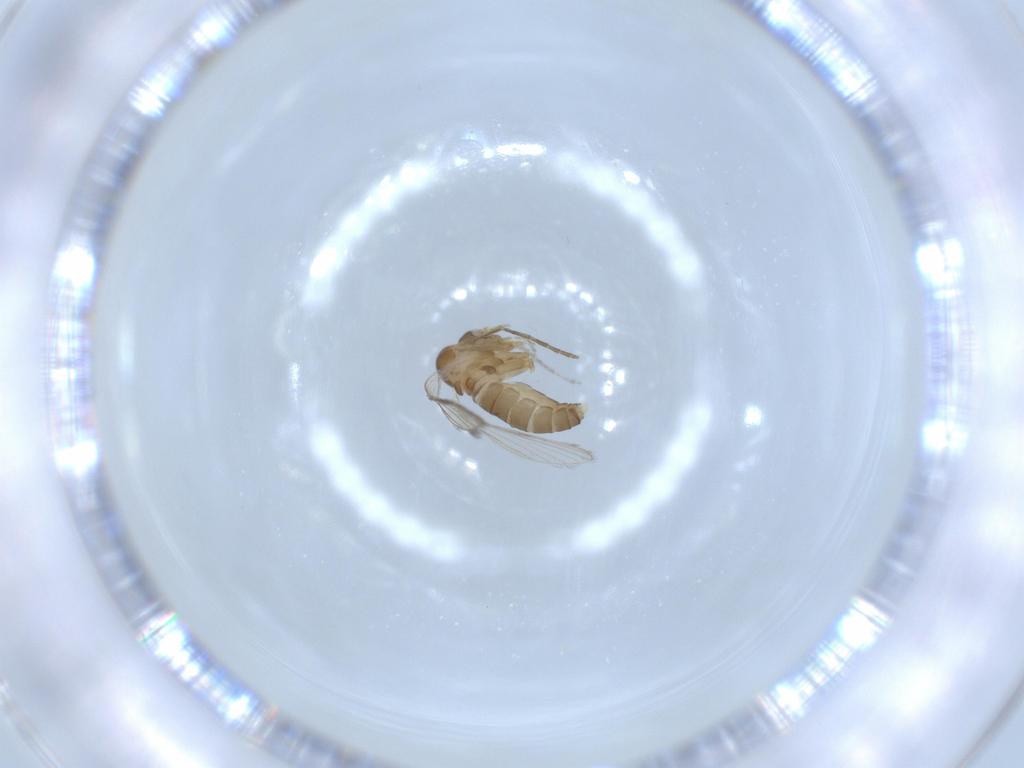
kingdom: Animalia
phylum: Arthropoda
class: Insecta
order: Diptera
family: Psychodidae
